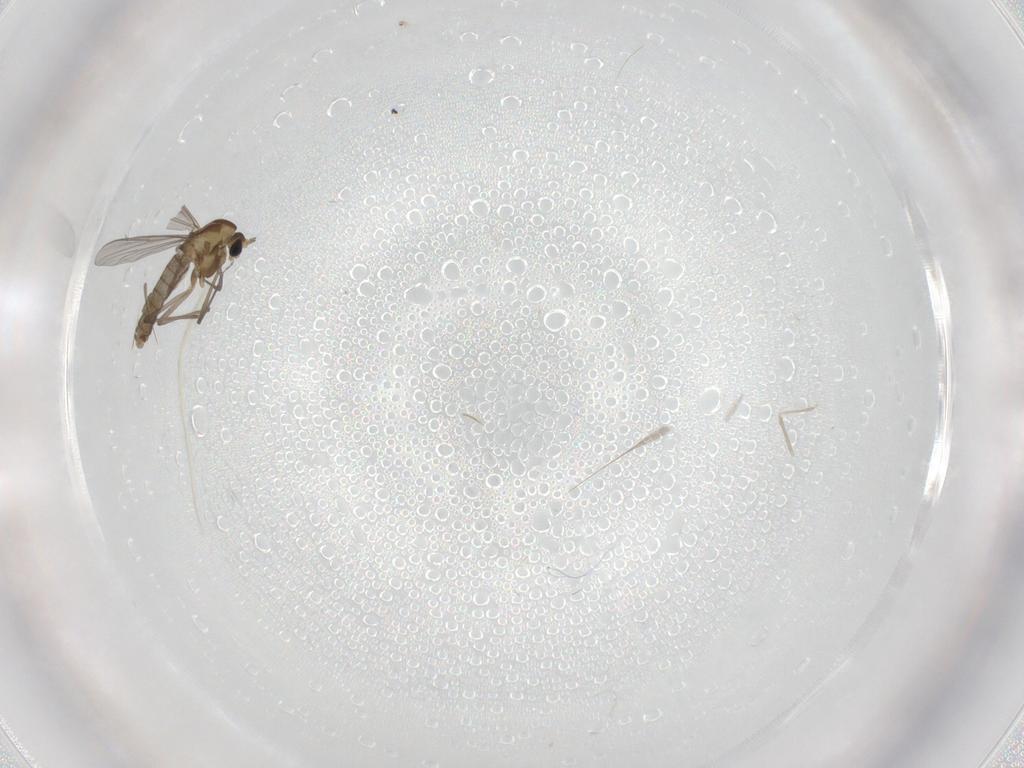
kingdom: Animalia
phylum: Arthropoda
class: Insecta
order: Diptera
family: Cecidomyiidae
